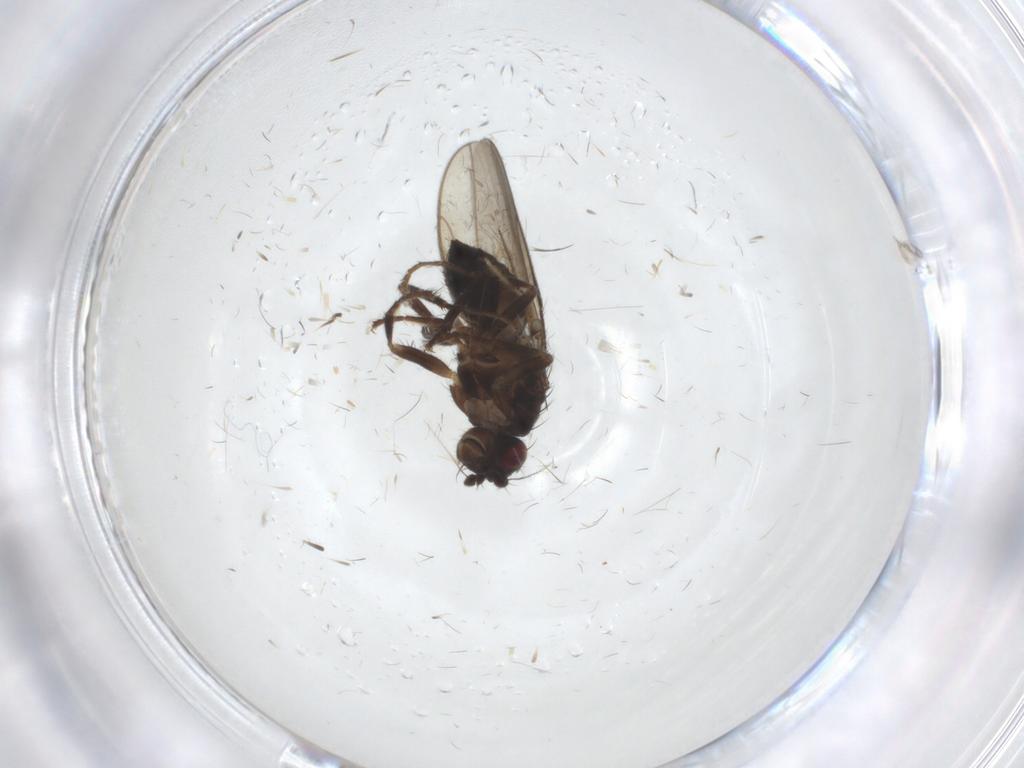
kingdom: Animalia
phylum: Arthropoda
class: Insecta
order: Diptera
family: Sphaeroceridae
